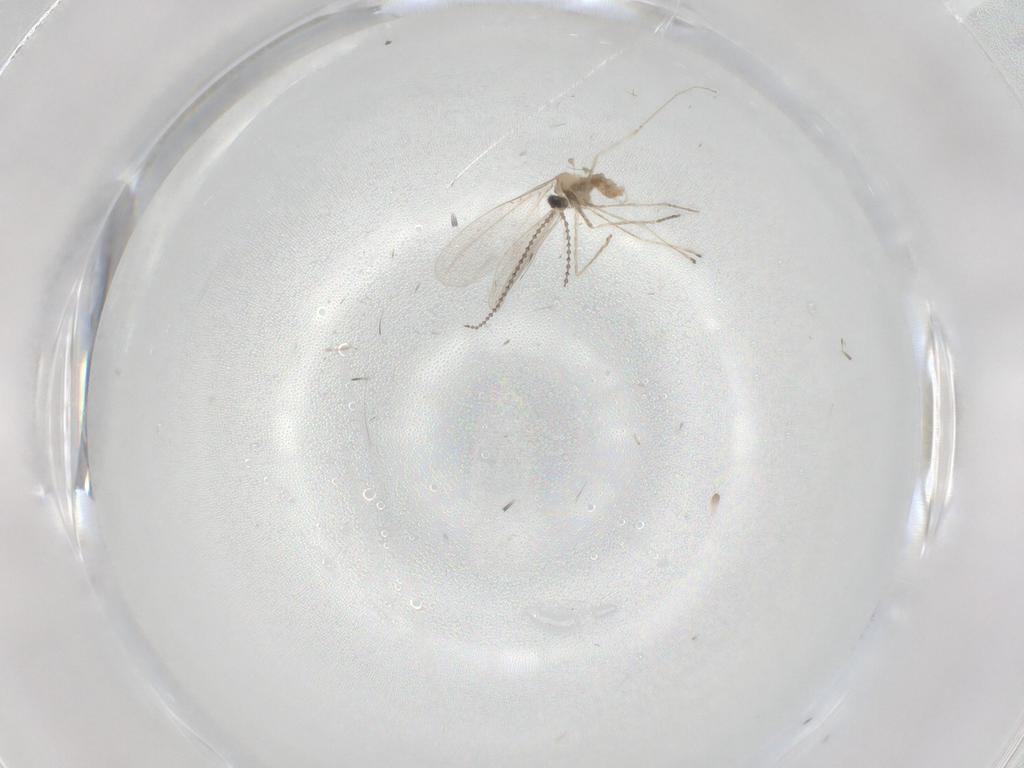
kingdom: Animalia
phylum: Arthropoda
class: Insecta
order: Diptera
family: Cecidomyiidae
